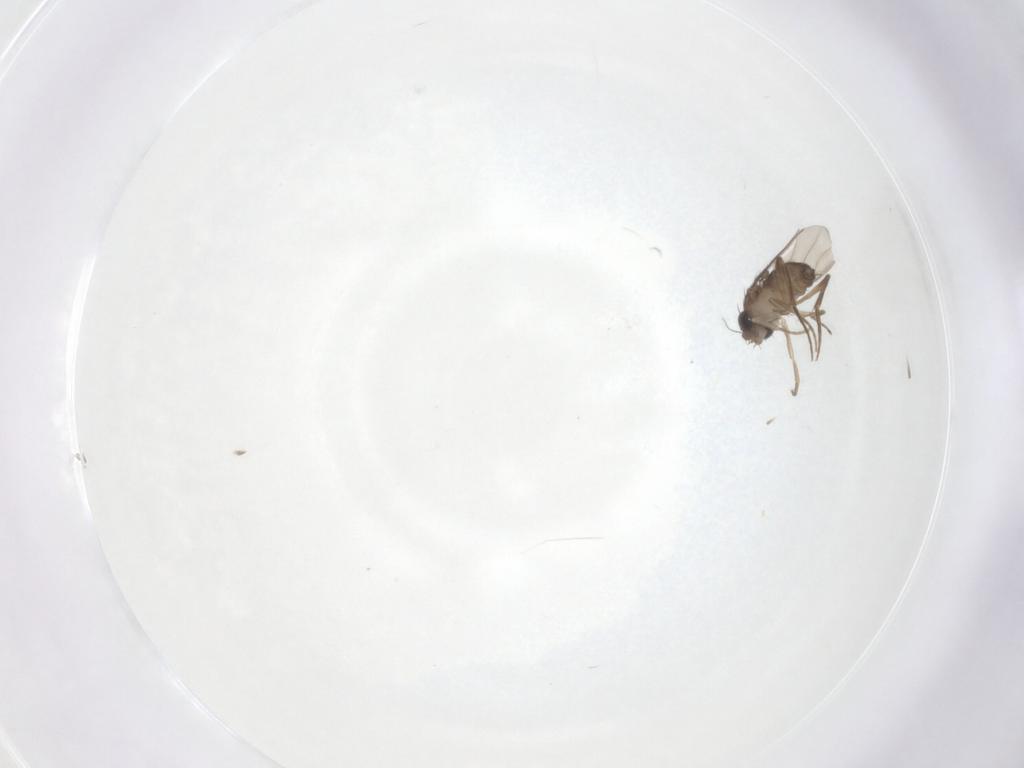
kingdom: Animalia
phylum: Arthropoda
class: Insecta
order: Diptera
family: Phoridae
